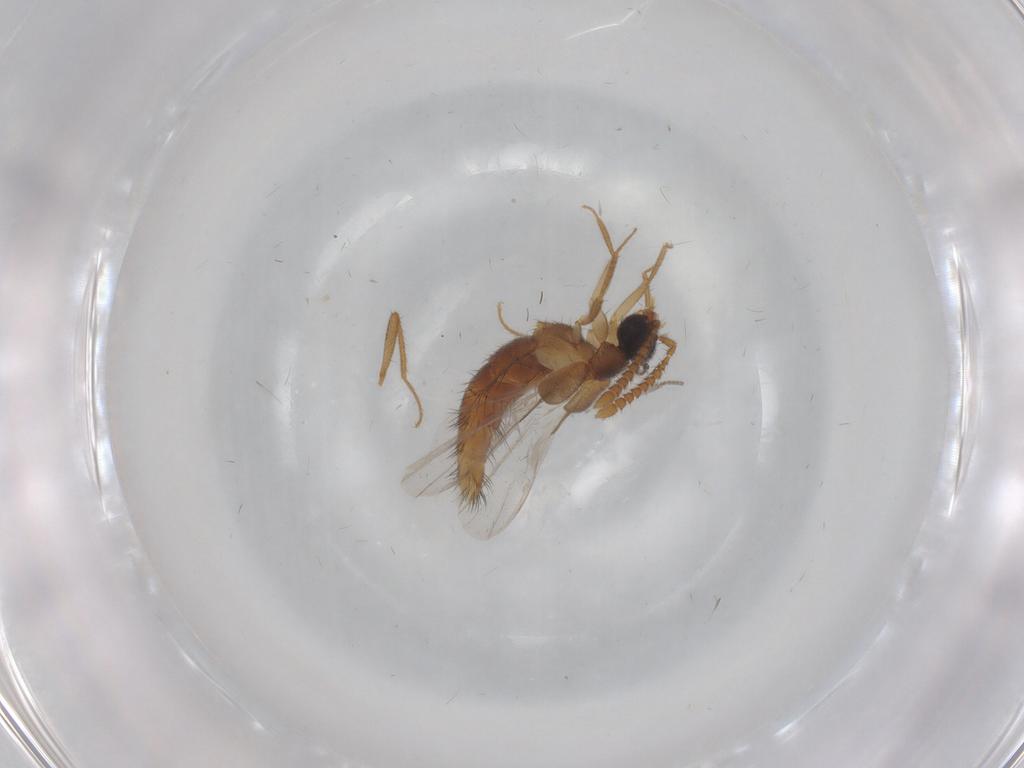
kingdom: Animalia
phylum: Arthropoda
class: Insecta
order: Coleoptera
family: Staphylinidae
